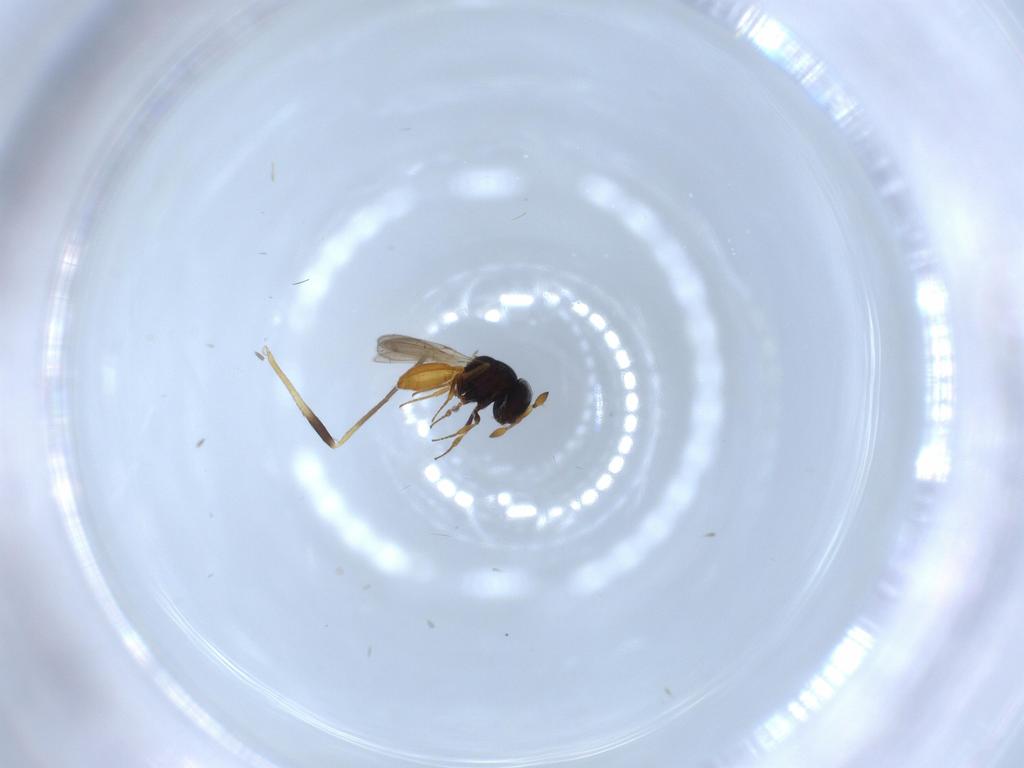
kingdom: Animalia
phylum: Arthropoda
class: Insecta
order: Hymenoptera
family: Scelionidae
